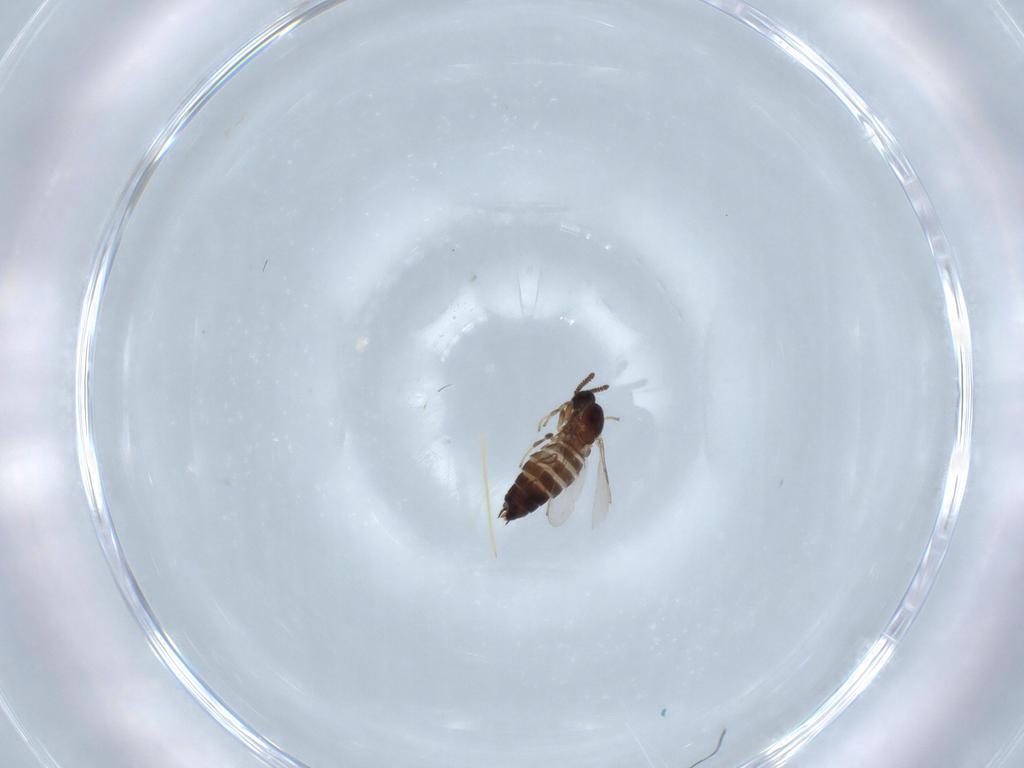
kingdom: Animalia
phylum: Arthropoda
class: Insecta
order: Diptera
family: Scatopsidae
